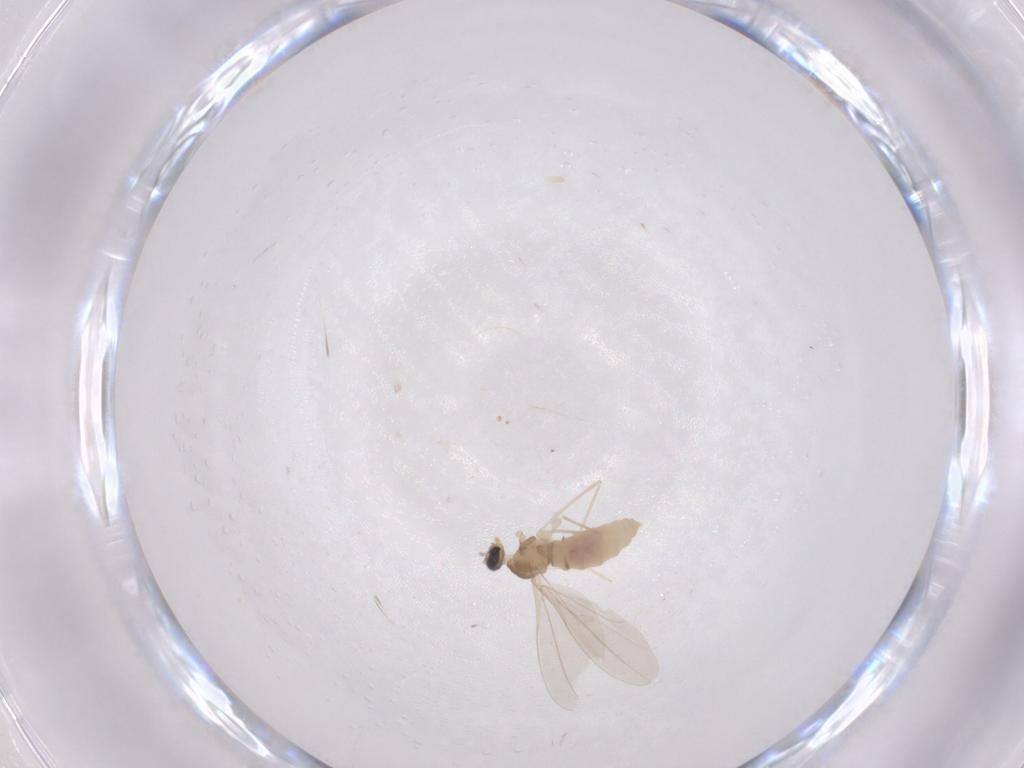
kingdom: Animalia
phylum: Arthropoda
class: Insecta
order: Diptera
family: Cecidomyiidae
